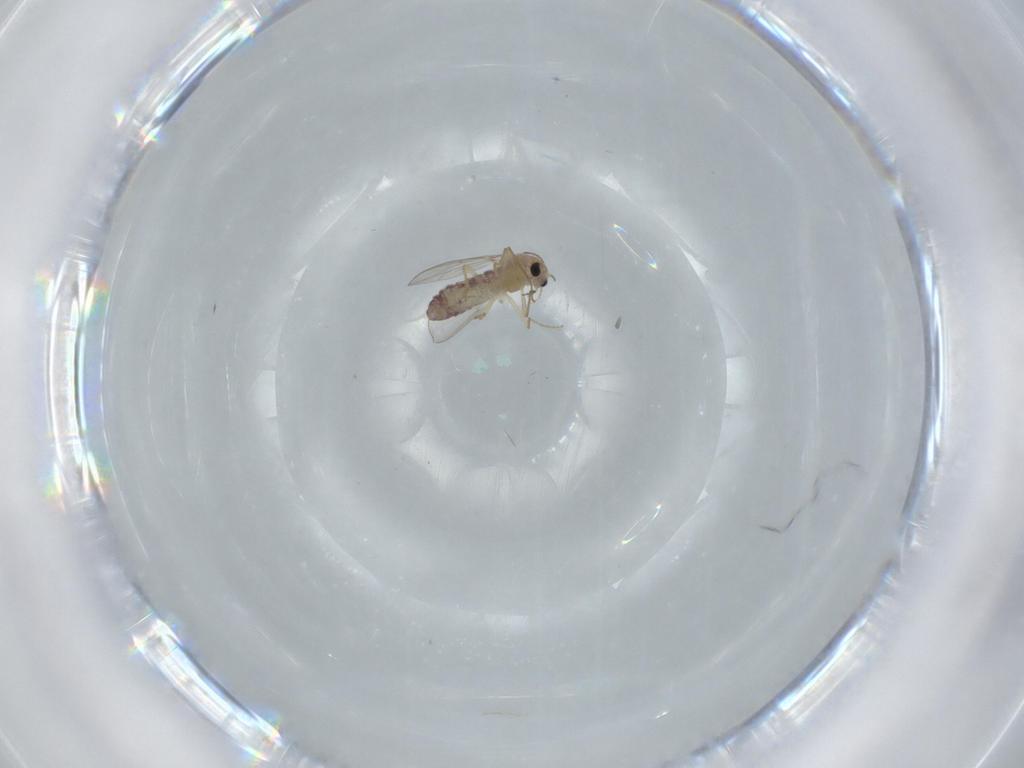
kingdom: Animalia
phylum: Arthropoda
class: Insecta
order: Diptera
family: Chironomidae
